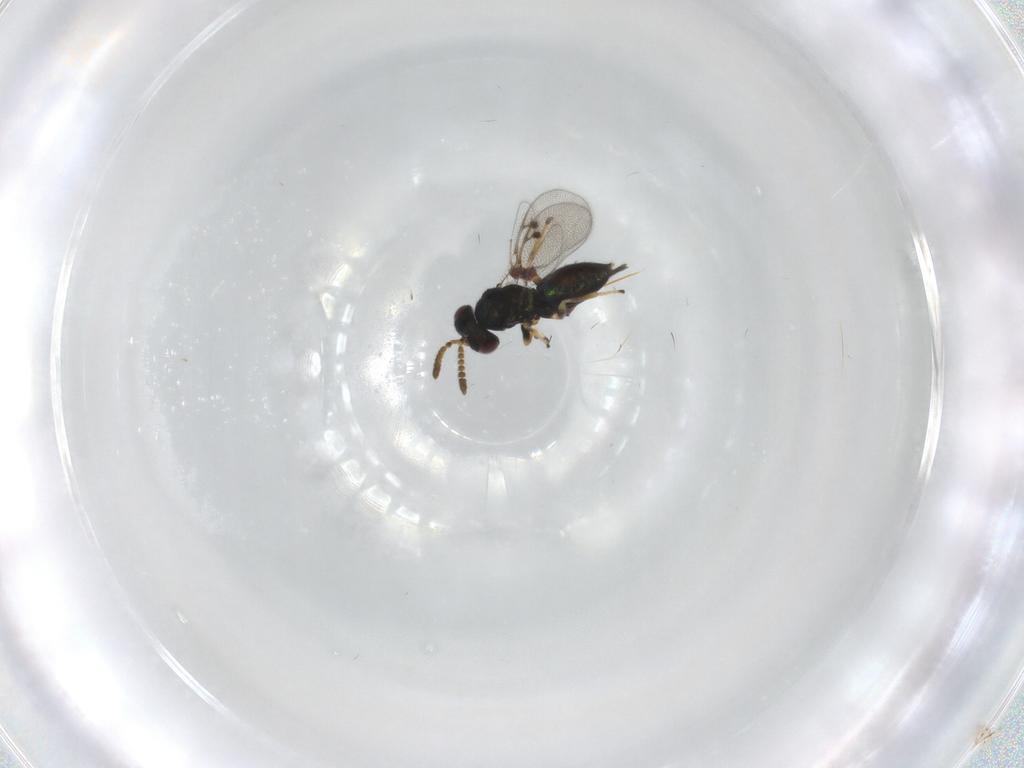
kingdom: Animalia
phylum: Arthropoda
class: Insecta
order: Hymenoptera
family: Pirenidae
